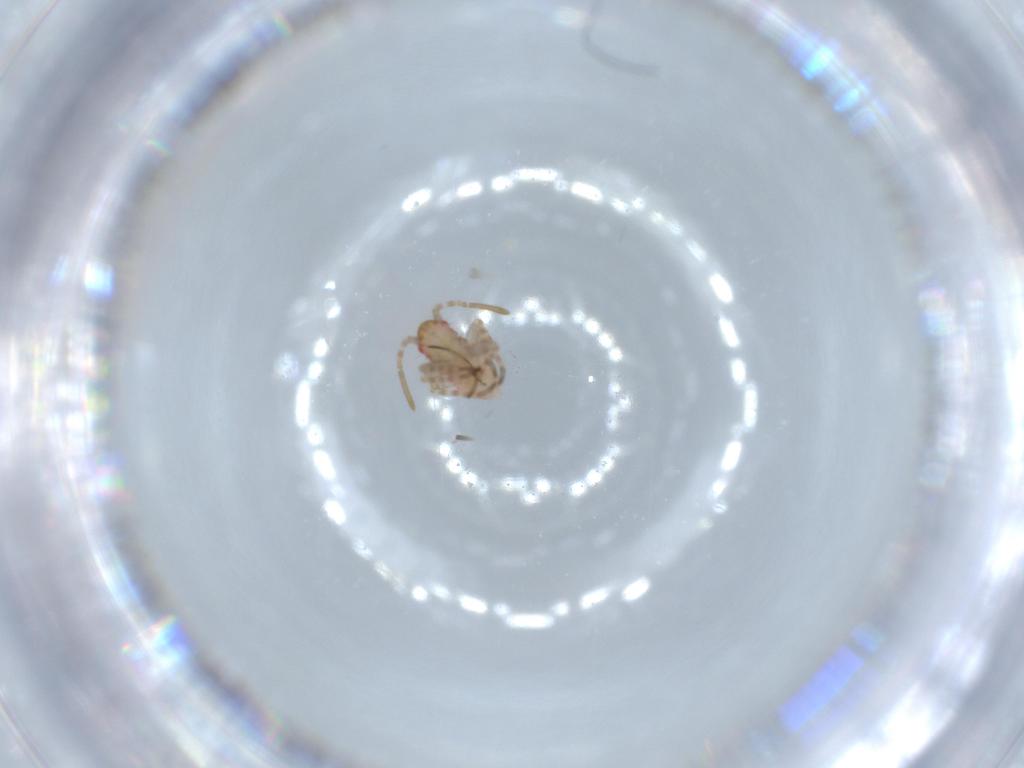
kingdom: Animalia
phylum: Arthropoda
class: Insecta
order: Hemiptera
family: Miridae
